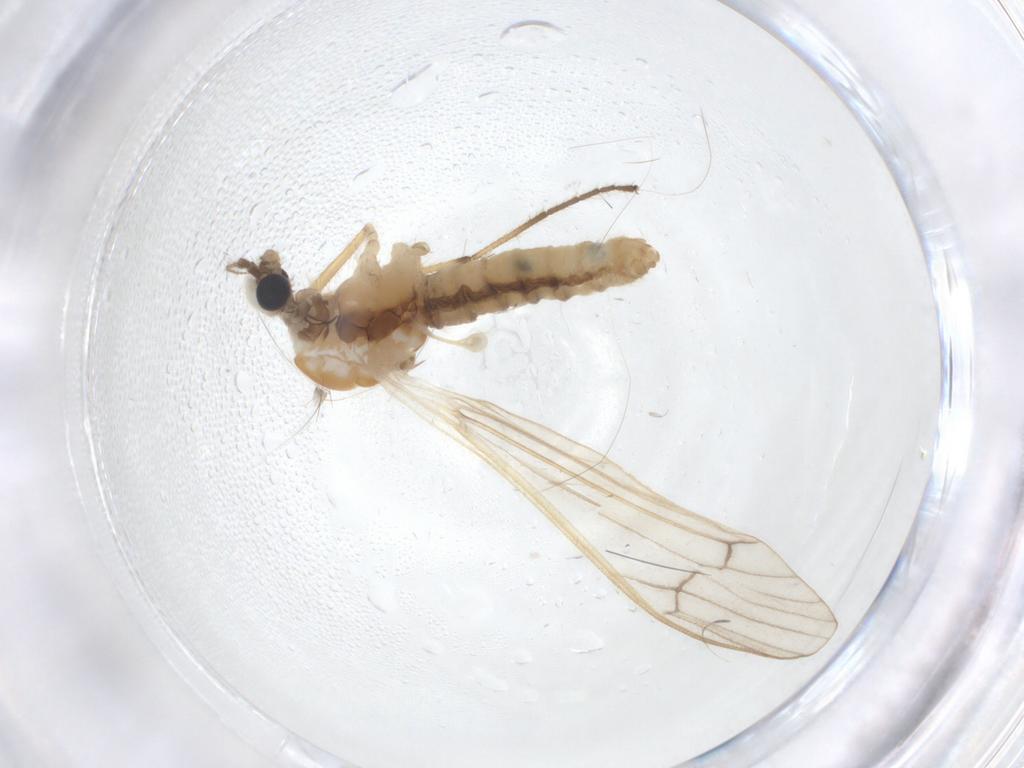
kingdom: Animalia
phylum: Arthropoda
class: Insecta
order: Diptera
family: Limoniidae
